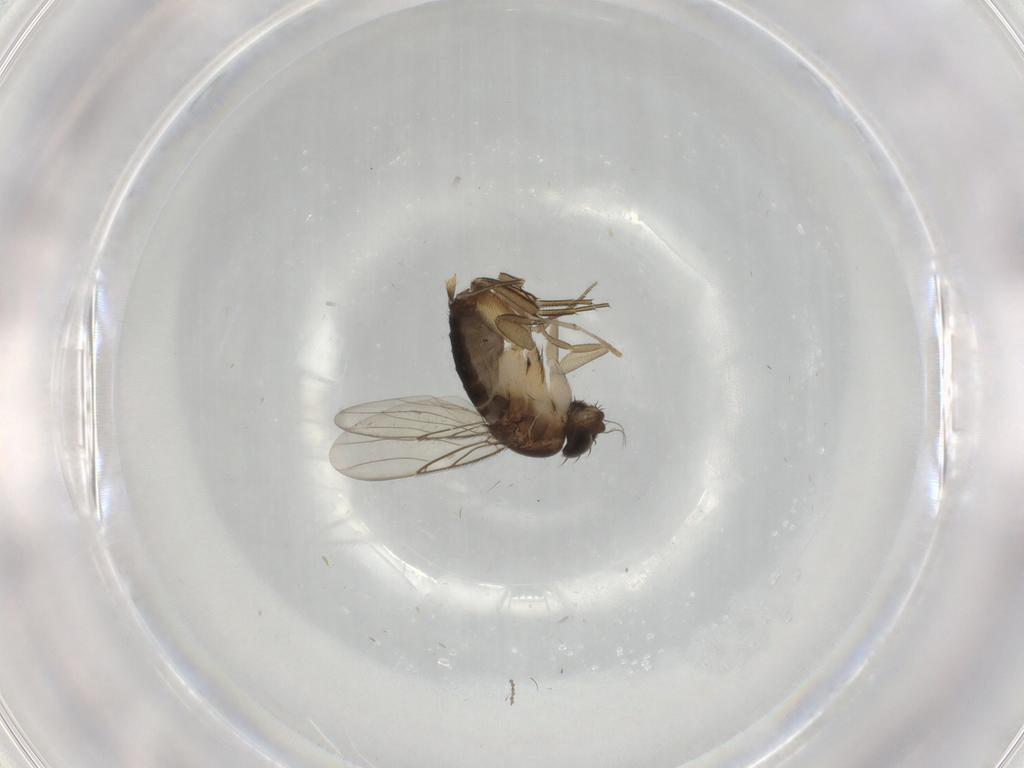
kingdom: Animalia
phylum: Arthropoda
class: Insecta
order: Diptera
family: Phoridae
